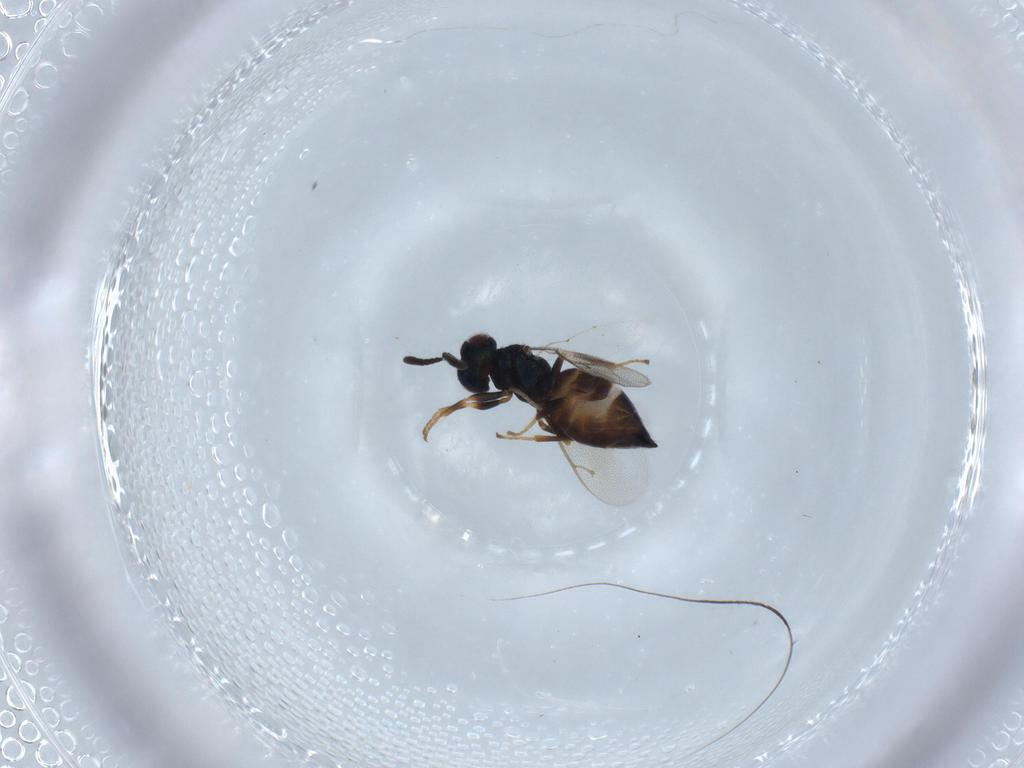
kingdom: Animalia
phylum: Arthropoda
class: Insecta
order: Hymenoptera
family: Pteromalidae
